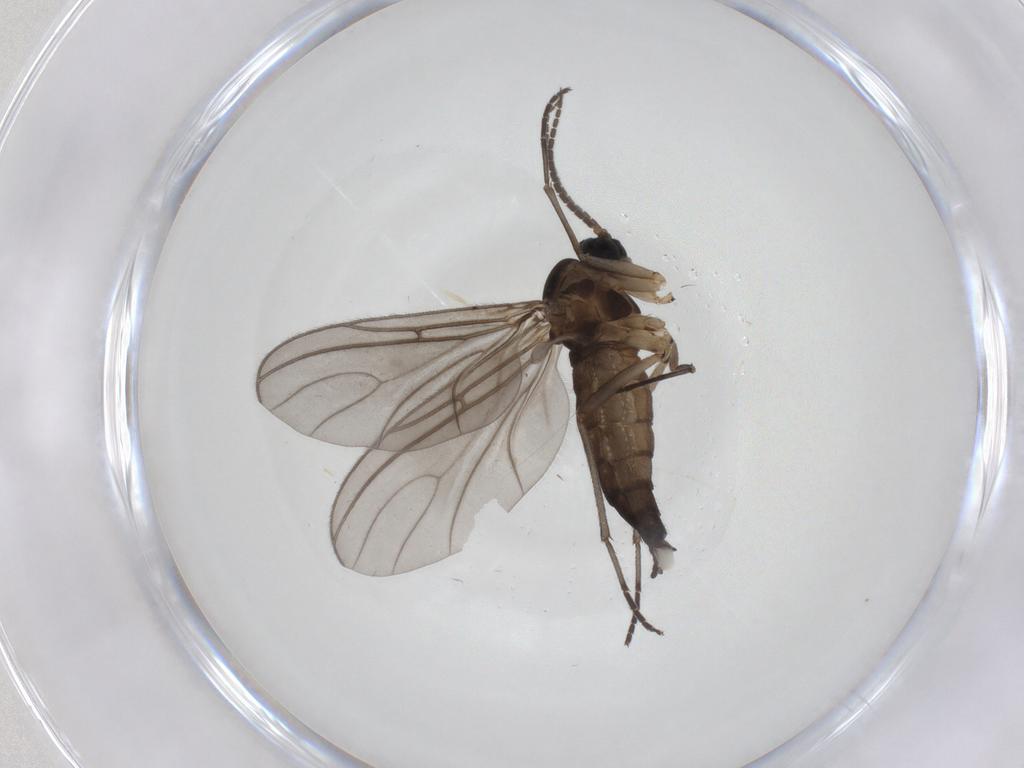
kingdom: Animalia
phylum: Arthropoda
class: Insecta
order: Diptera
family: Sciaridae
